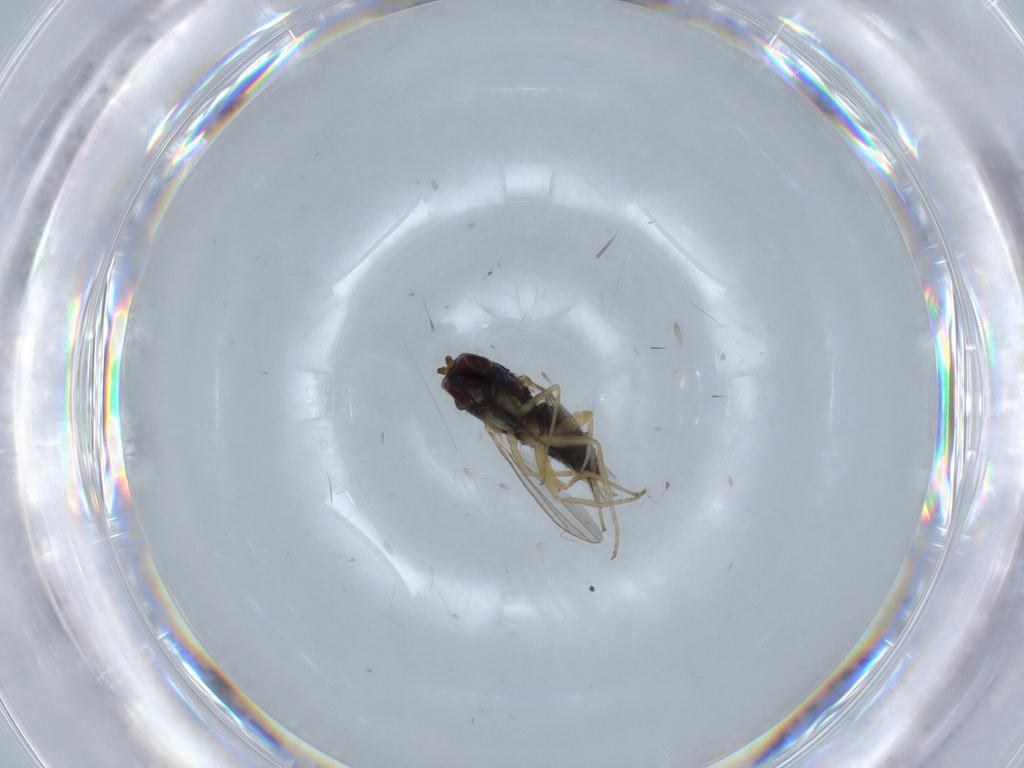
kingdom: Animalia
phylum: Arthropoda
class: Insecta
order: Diptera
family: Dolichopodidae
